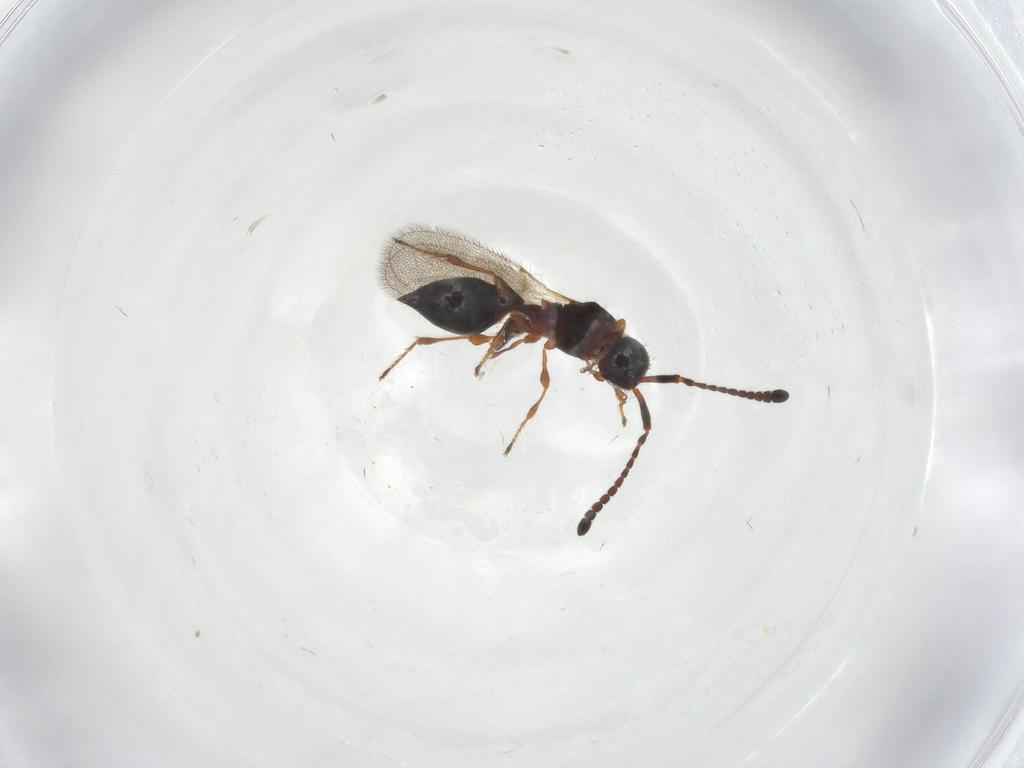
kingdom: Animalia
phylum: Arthropoda
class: Insecta
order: Hymenoptera
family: Diapriidae
